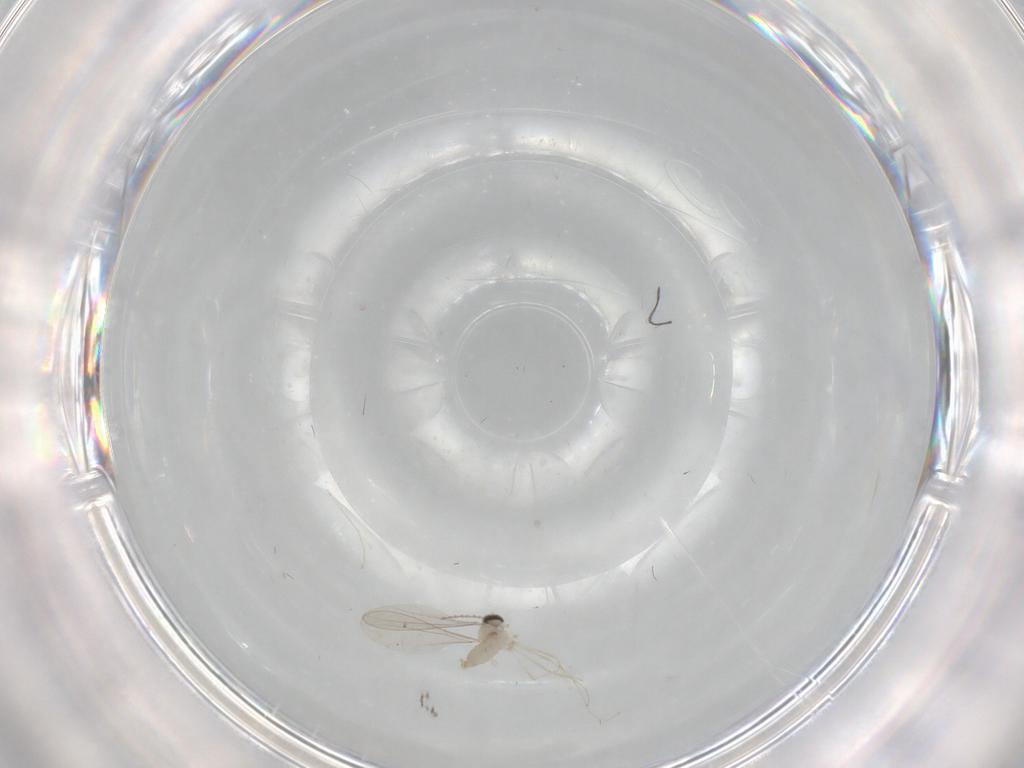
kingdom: Animalia
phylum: Arthropoda
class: Insecta
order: Diptera
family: Cecidomyiidae
